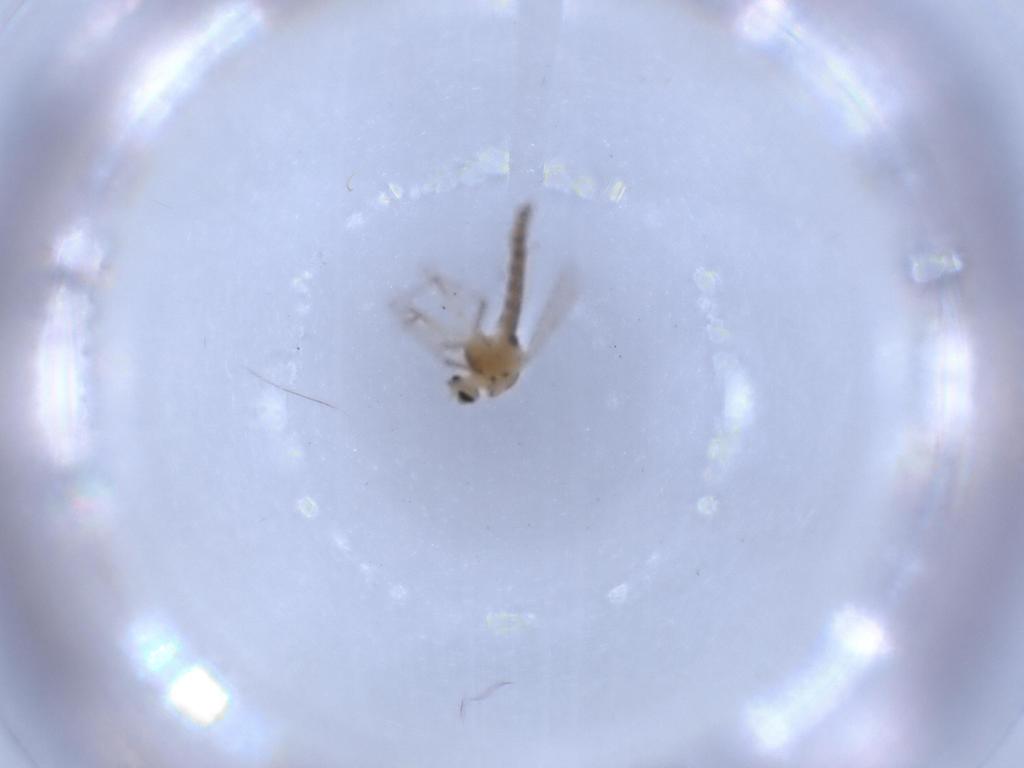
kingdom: Animalia
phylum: Arthropoda
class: Insecta
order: Diptera
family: Chironomidae
